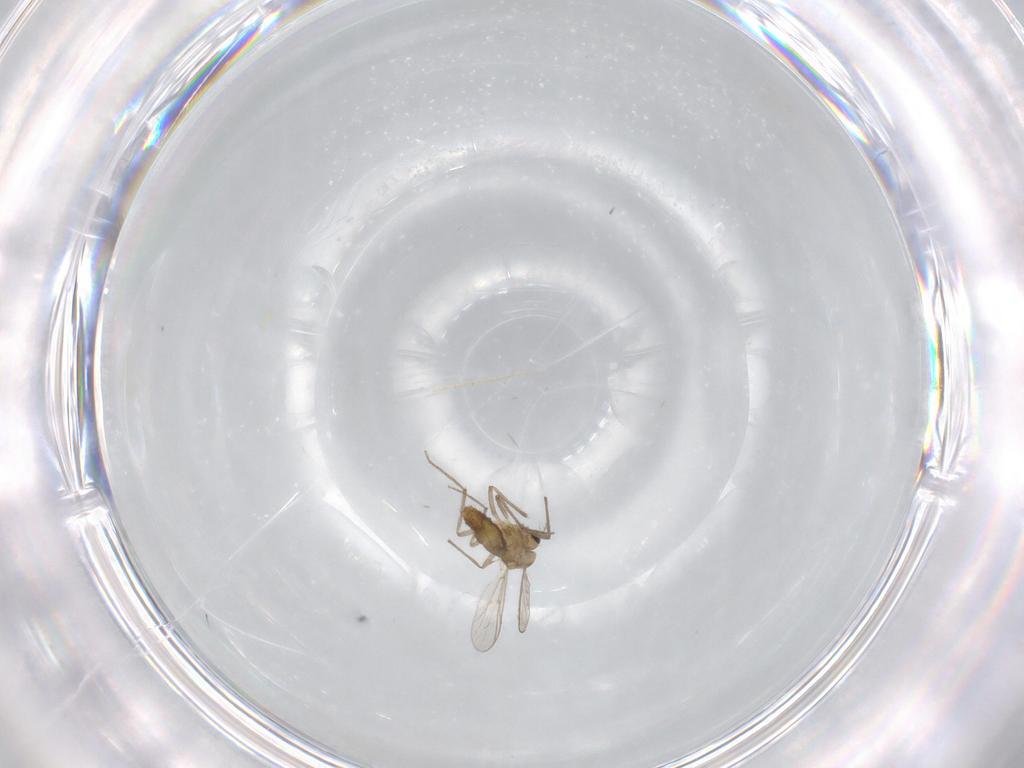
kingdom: Animalia
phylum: Arthropoda
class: Insecta
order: Diptera
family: Chironomidae
